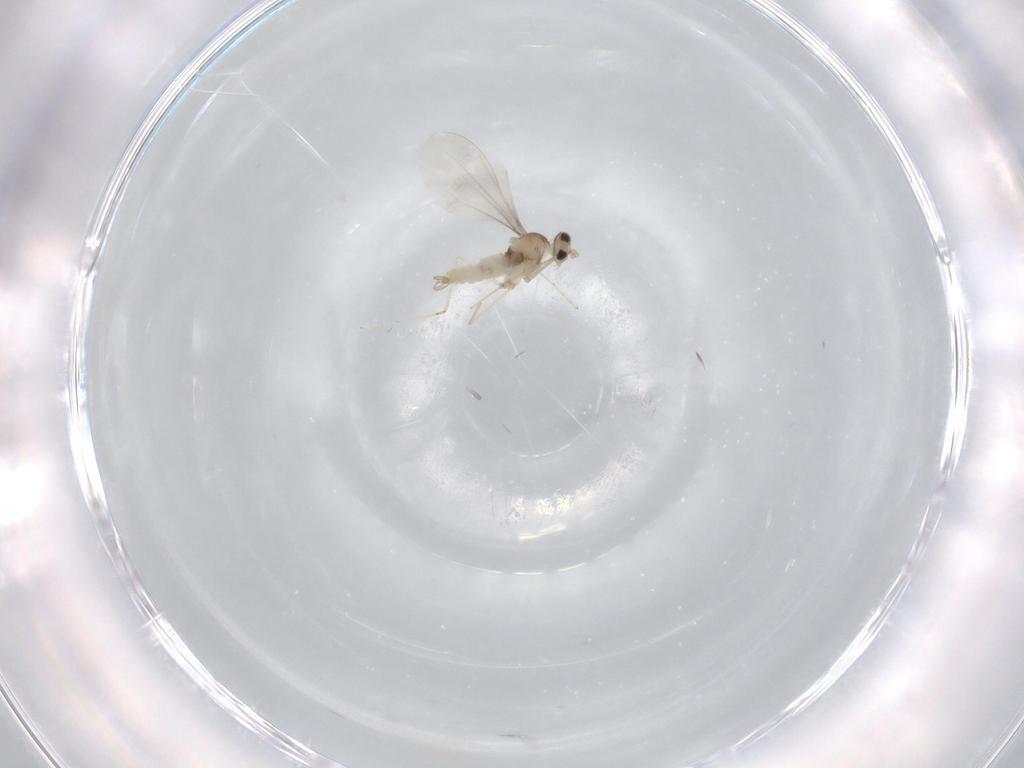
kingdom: Animalia
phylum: Arthropoda
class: Insecta
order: Diptera
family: Cecidomyiidae
